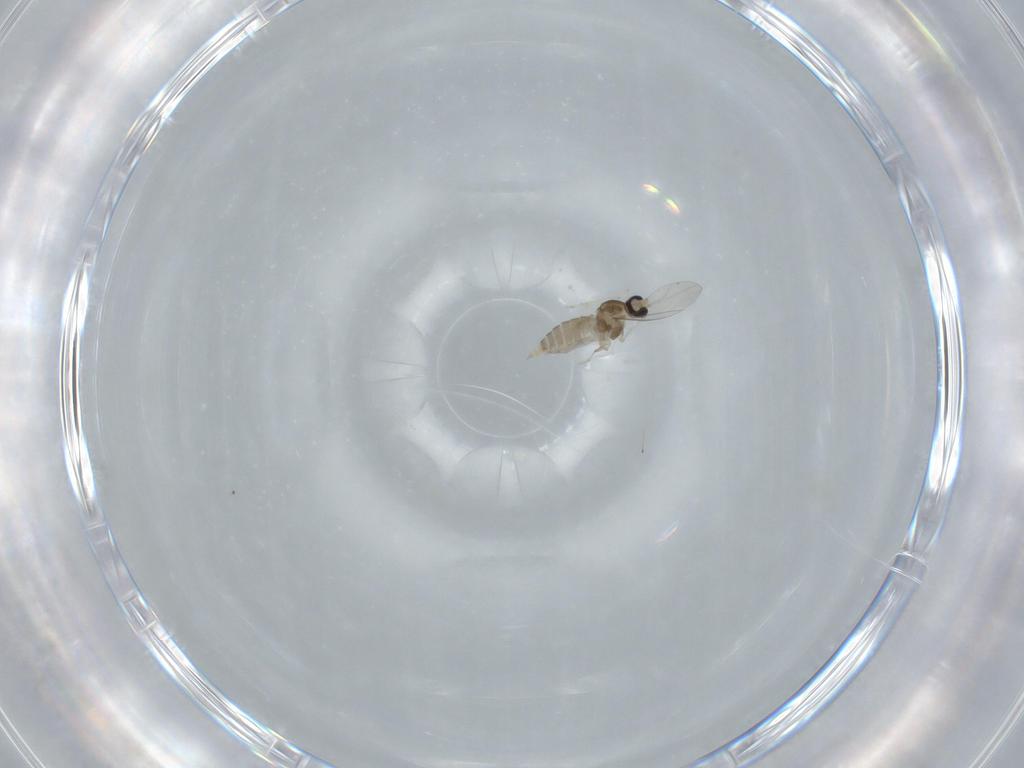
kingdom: Animalia
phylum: Arthropoda
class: Insecta
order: Diptera
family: Cecidomyiidae
